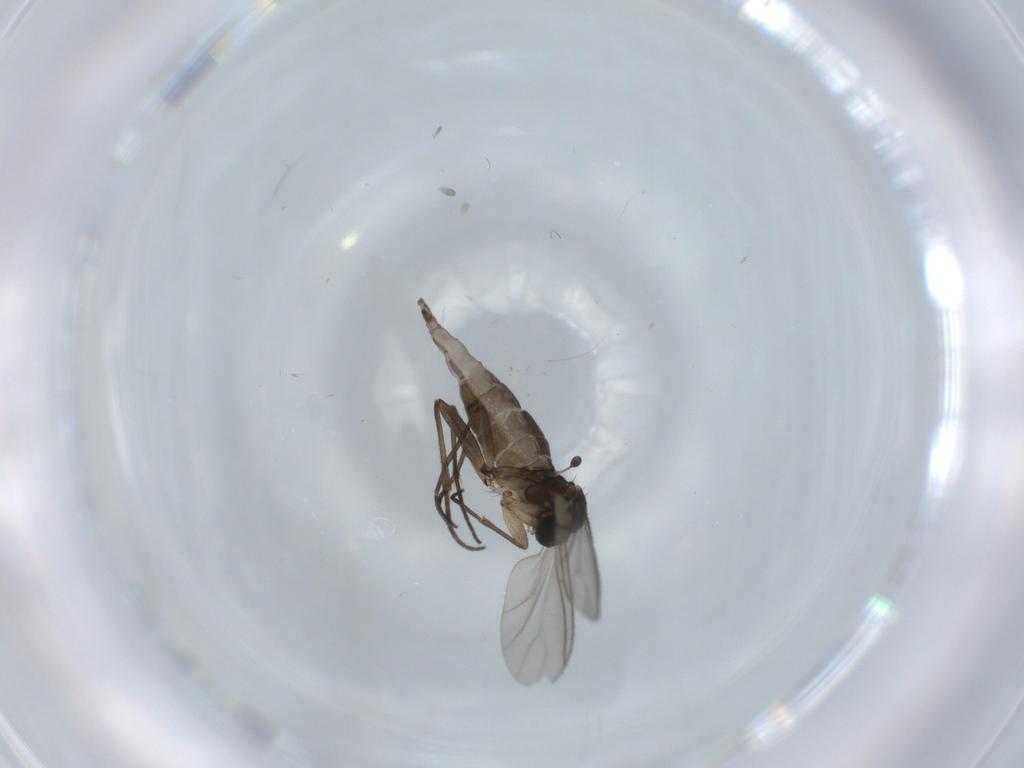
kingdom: Animalia
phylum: Arthropoda
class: Insecta
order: Diptera
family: Sciaridae
